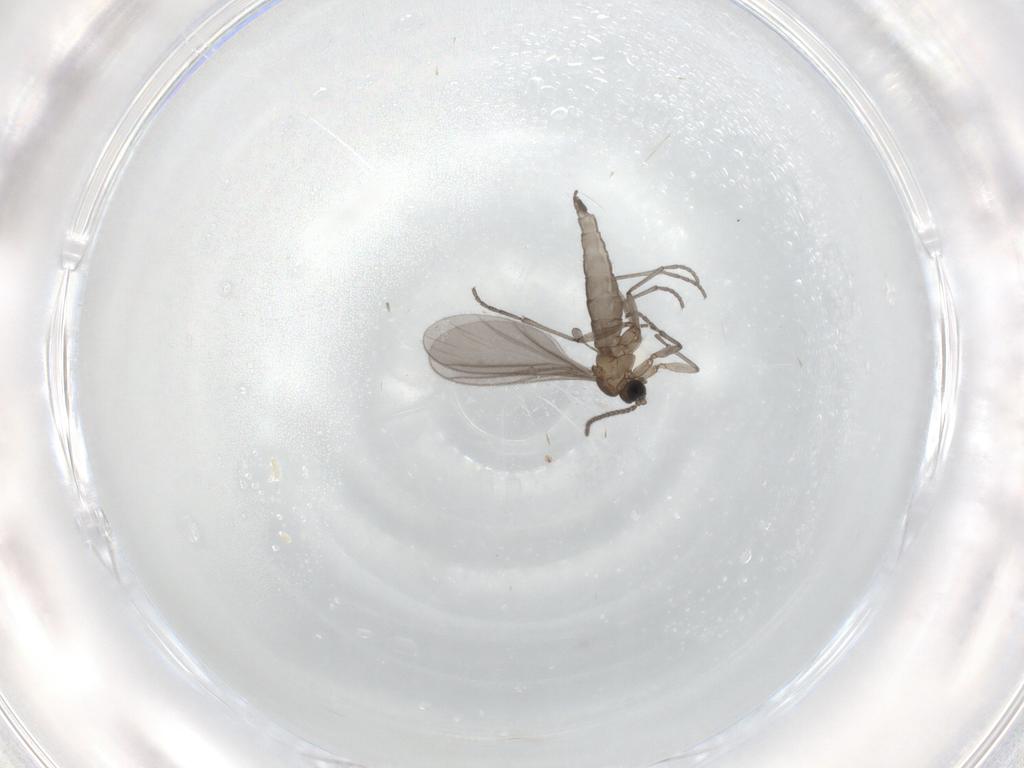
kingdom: Animalia
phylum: Arthropoda
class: Insecta
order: Diptera
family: Sciaridae
